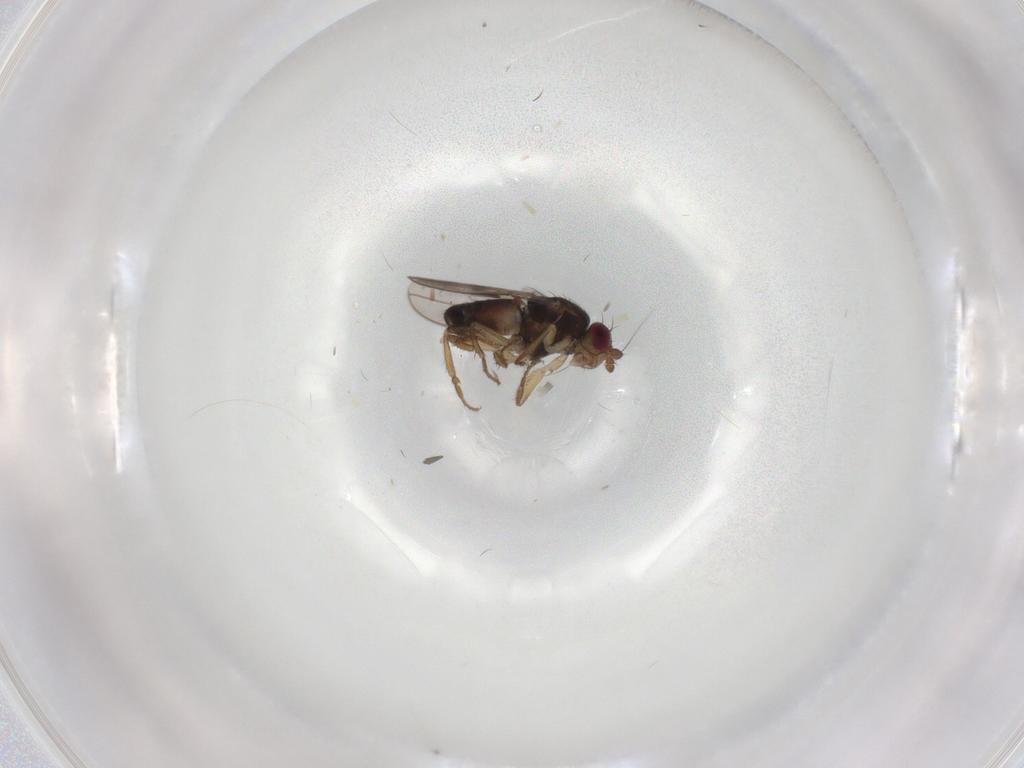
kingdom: Animalia
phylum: Arthropoda
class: Insecta
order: Diptera
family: Sphaeroceridae
